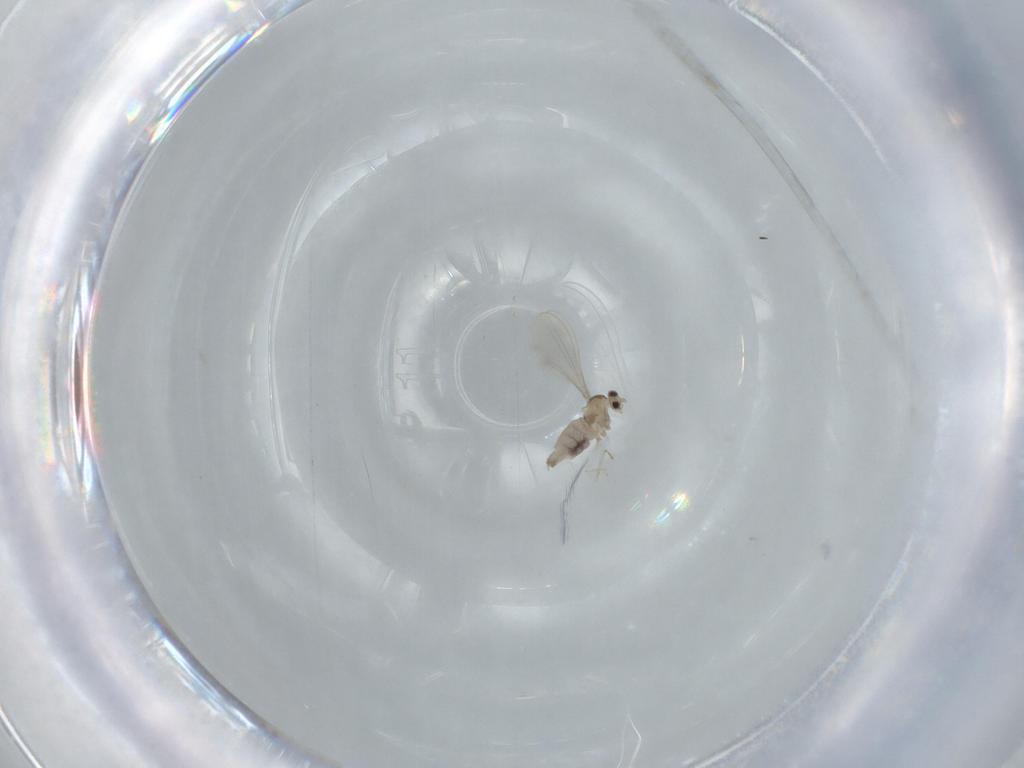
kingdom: Animalia
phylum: Arthropoda
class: Insecta
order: Diptera
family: Cecidomyiidae
